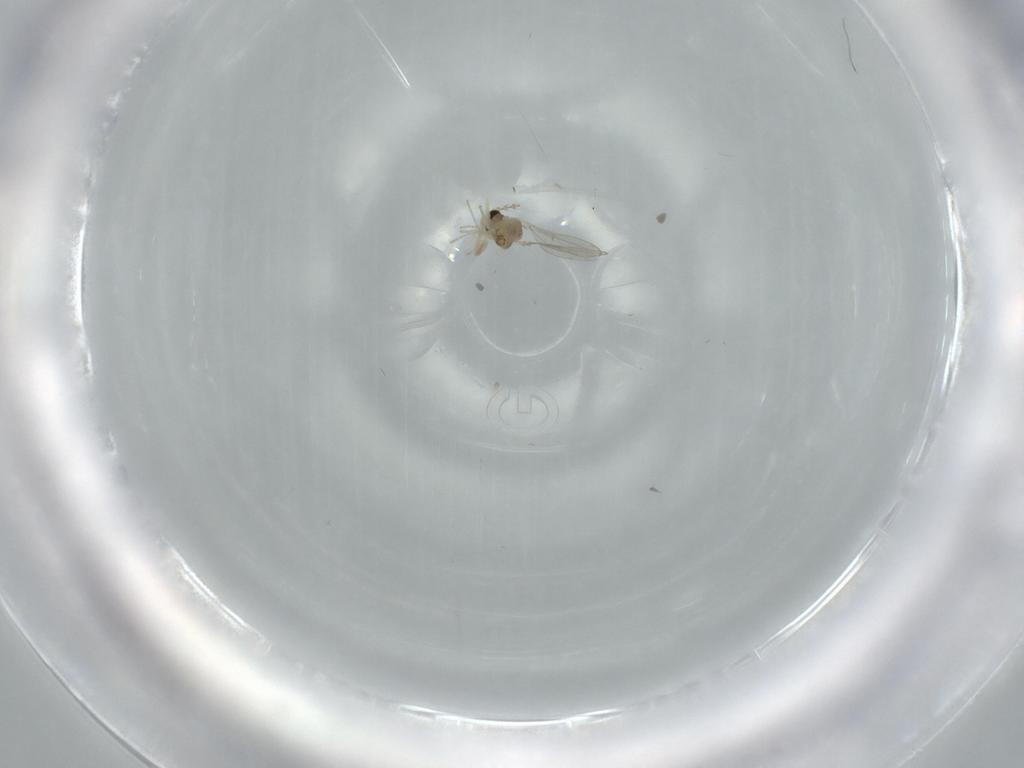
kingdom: Animalia
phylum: Arthropoda
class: Insecta
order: Diptera
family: Cecidomyiidae
